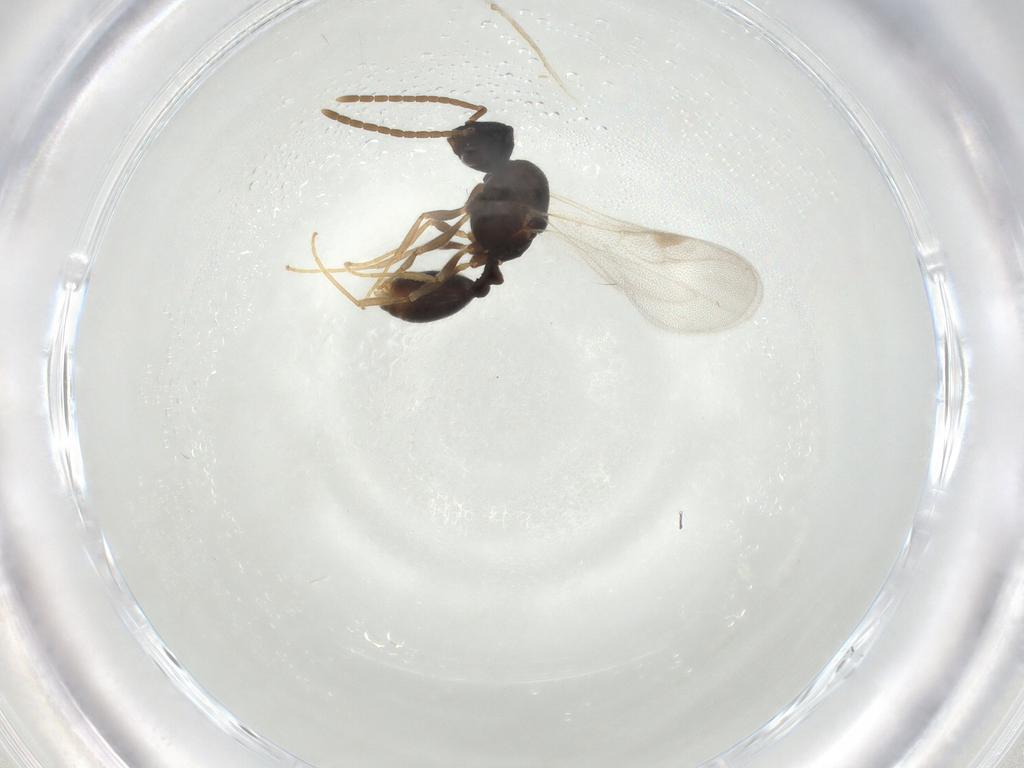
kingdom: Animalia
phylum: Arthropoda
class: Insecta
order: Hymenoptera
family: Formicidae
